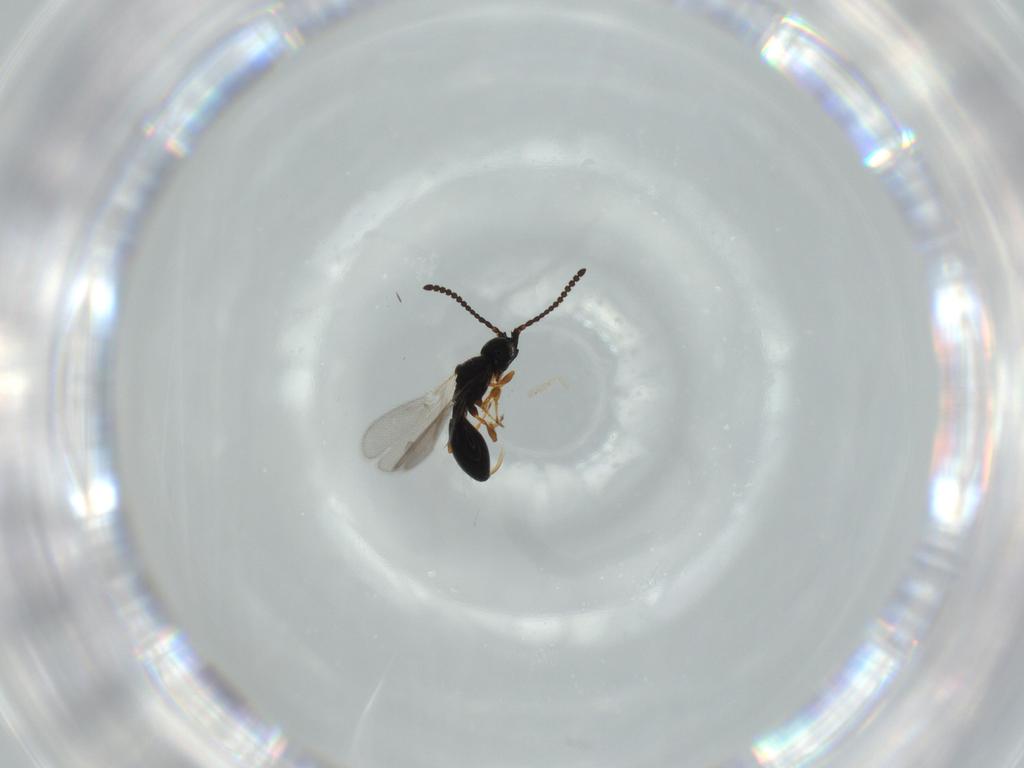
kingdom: Animalia
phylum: Arthropoda
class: Insecta
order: Hymenoptera
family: Diapriidae
